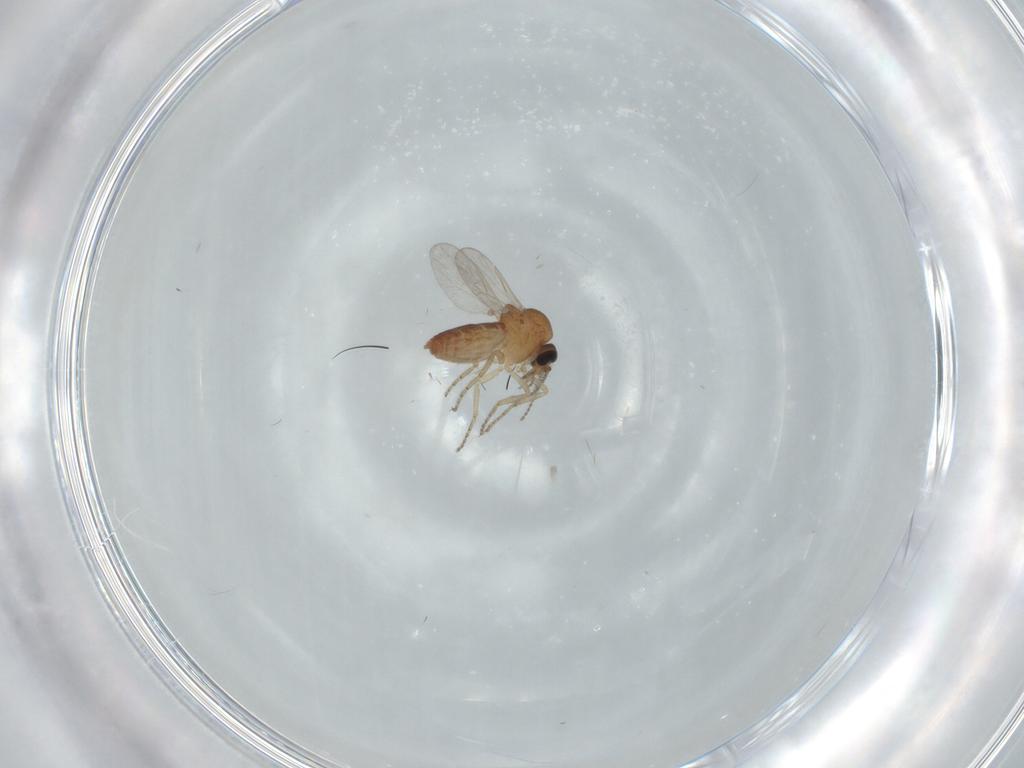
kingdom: Animalia
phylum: Arthropoda
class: Insecta
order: Diptera
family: Ceratopogonidae
